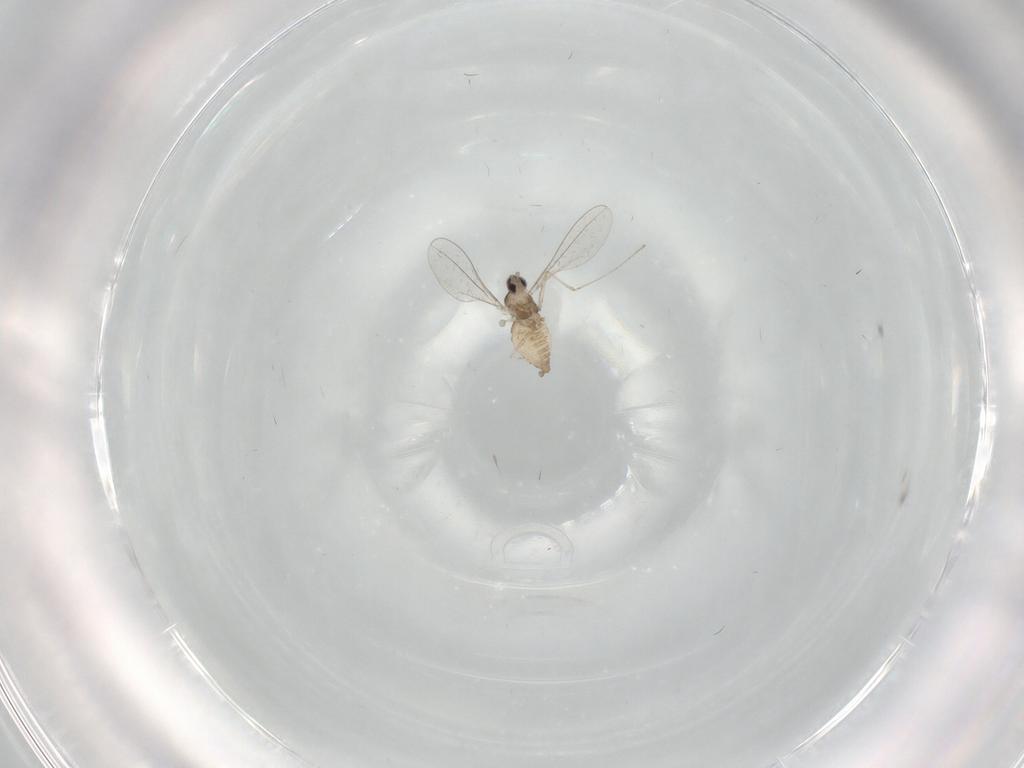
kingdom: Animalia
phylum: Arthropoda
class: Insecta
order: Diptera
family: Cecidomyiidae
